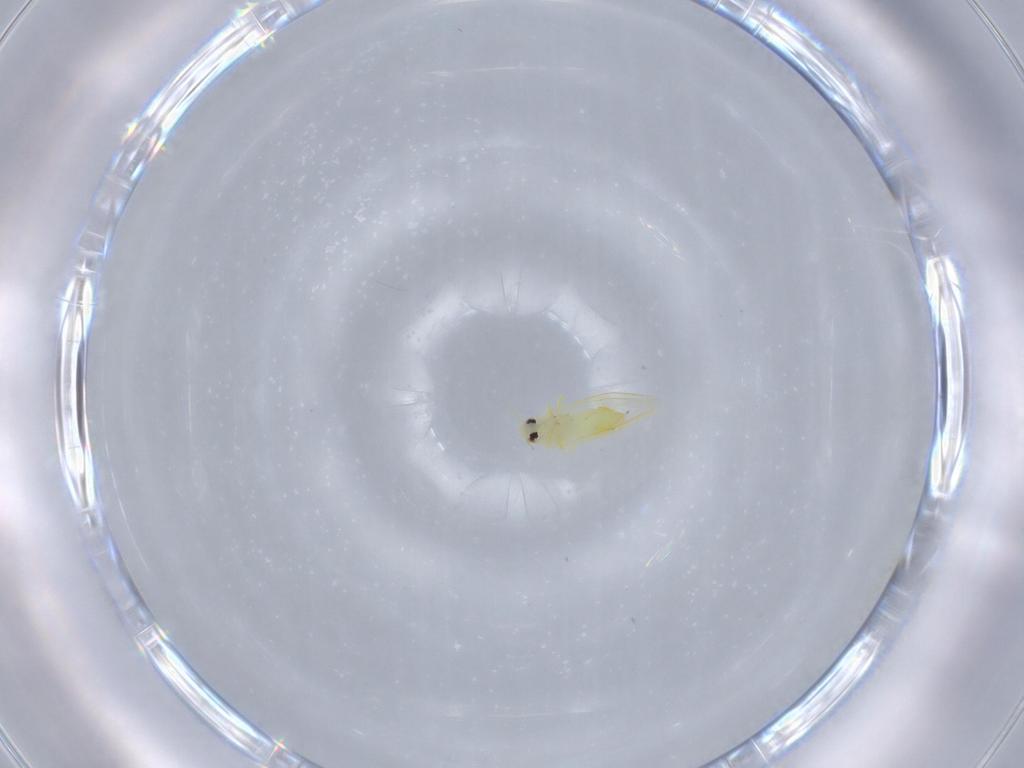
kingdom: Animalia
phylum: Arthropoda
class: Insecta
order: Hemiptera
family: Aleyrodidae
